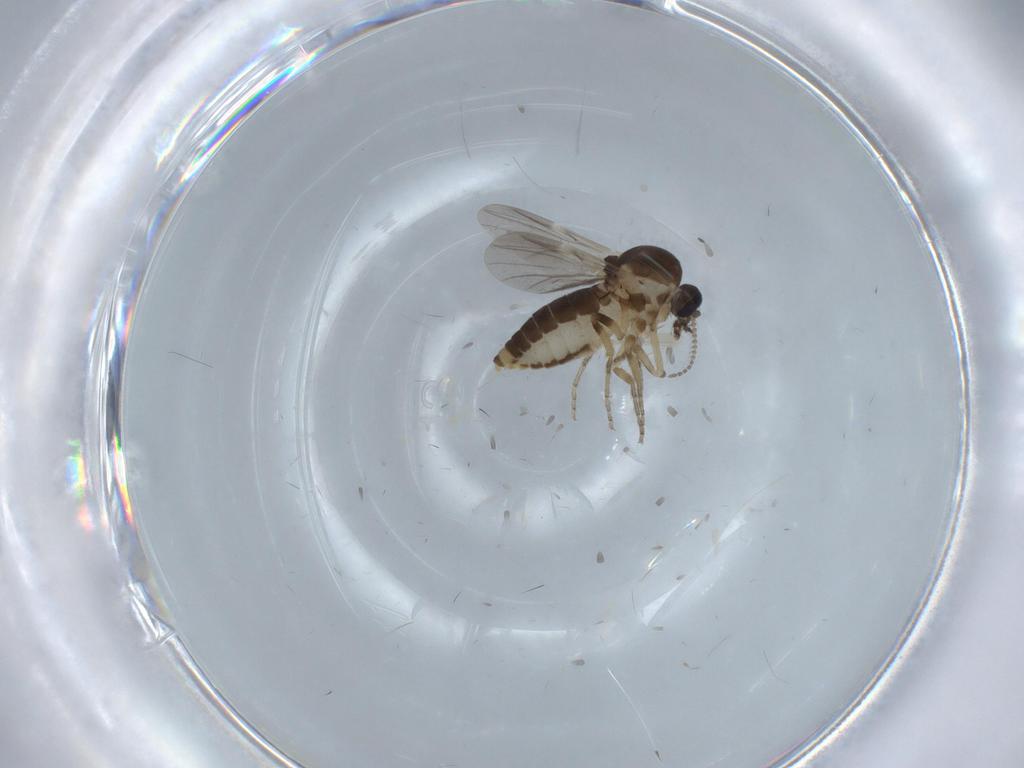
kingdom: Animalia
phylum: Arthropoda
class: Insecta
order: Diptera
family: Ceratopogonidae
